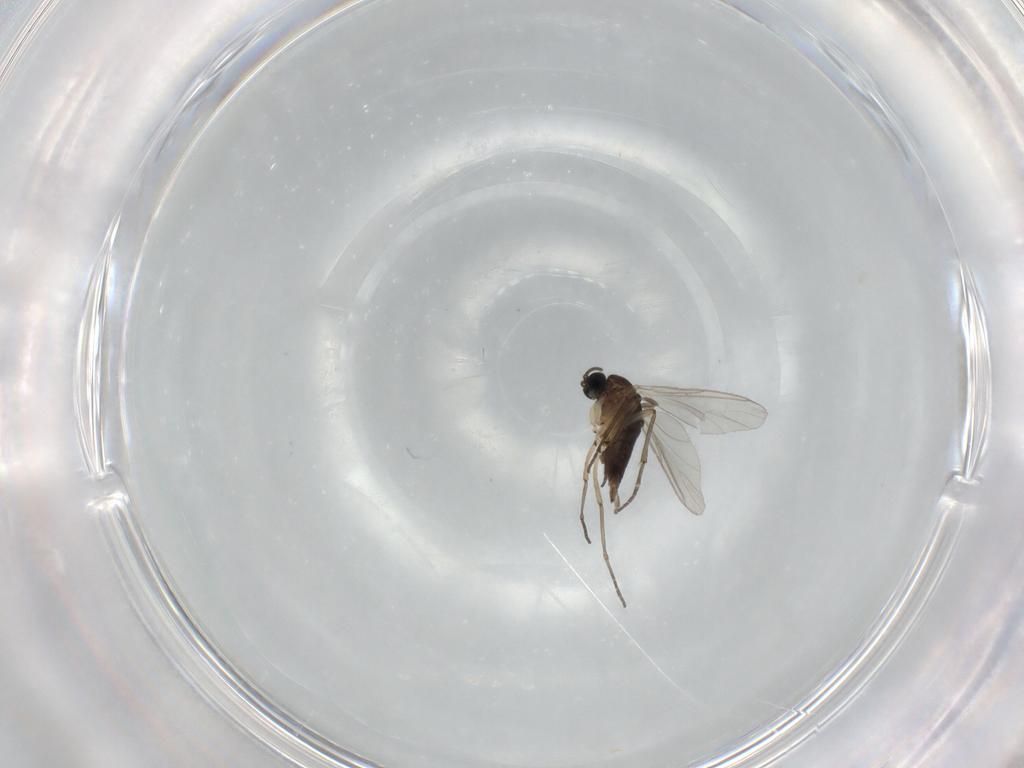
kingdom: Animalia
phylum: Arthropoda
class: Insecta
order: Diptera
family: Sciaridae
